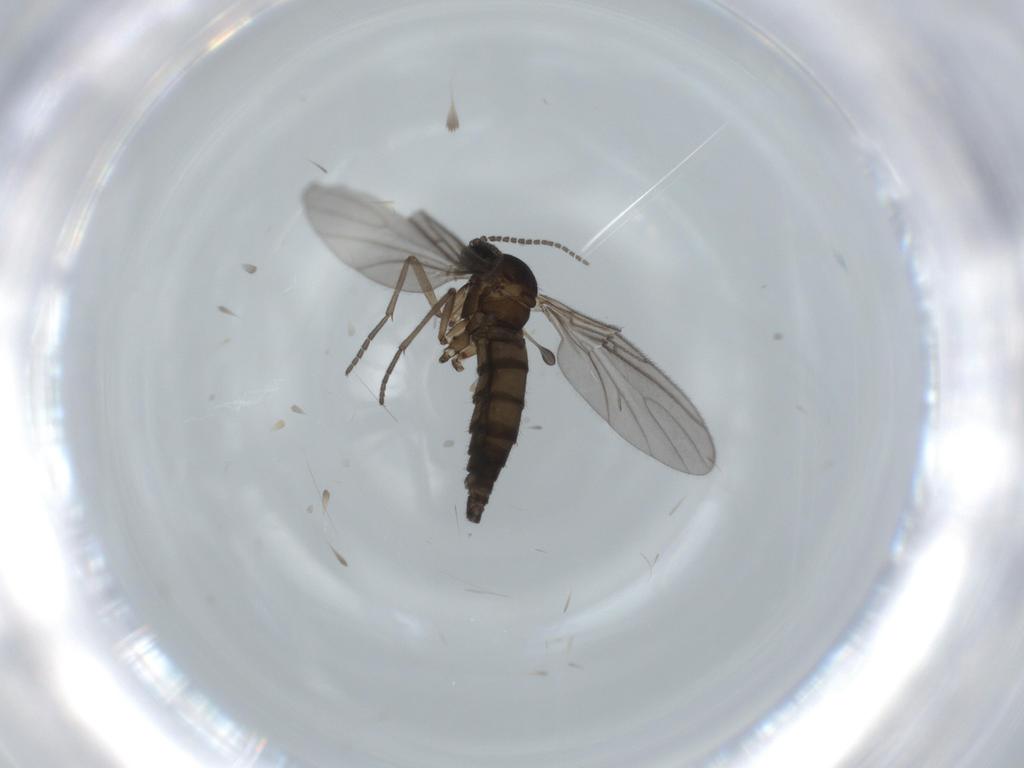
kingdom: Animalia
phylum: Arthropoda
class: Insecta
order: Diptera
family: Sciaridae
